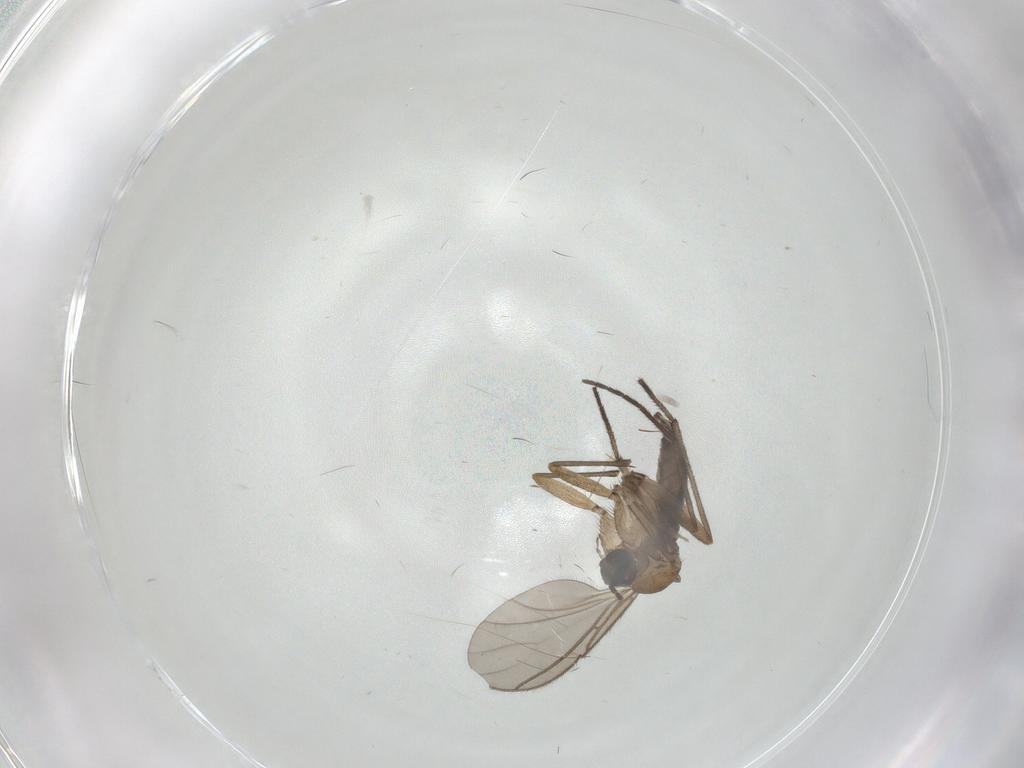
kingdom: Animalia
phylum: Arthropoda
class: Insecta
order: Diptera
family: Sciaridae
